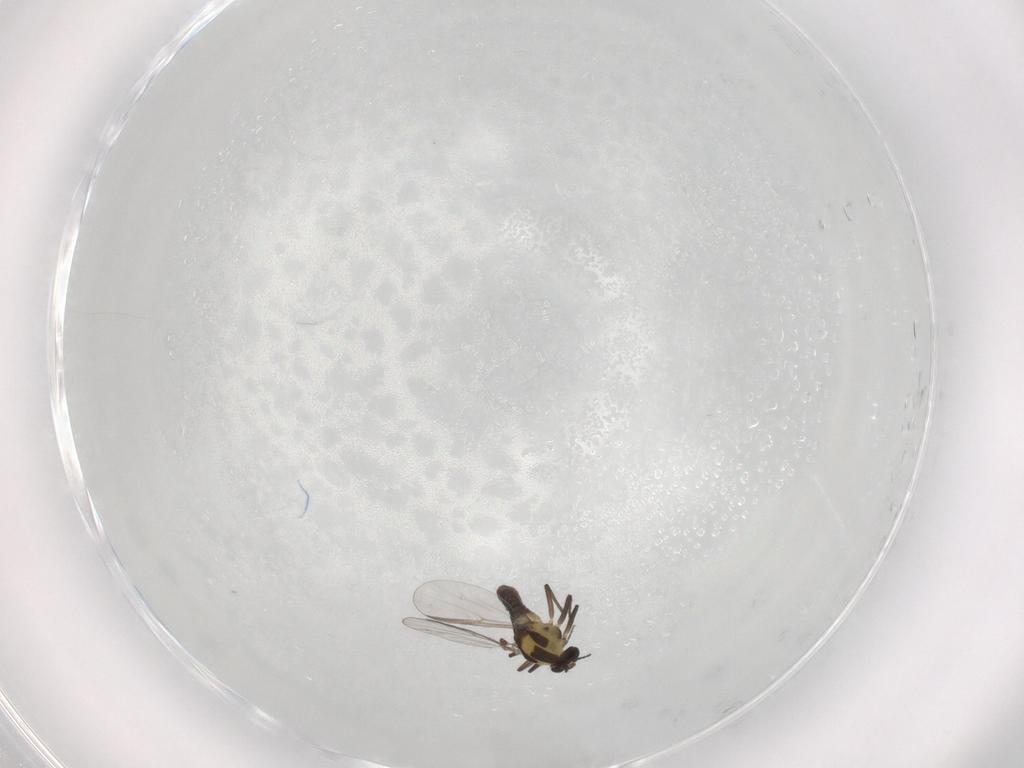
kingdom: Animalia
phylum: Arthropoda
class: Insecta
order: Diptera
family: Chironomidae
